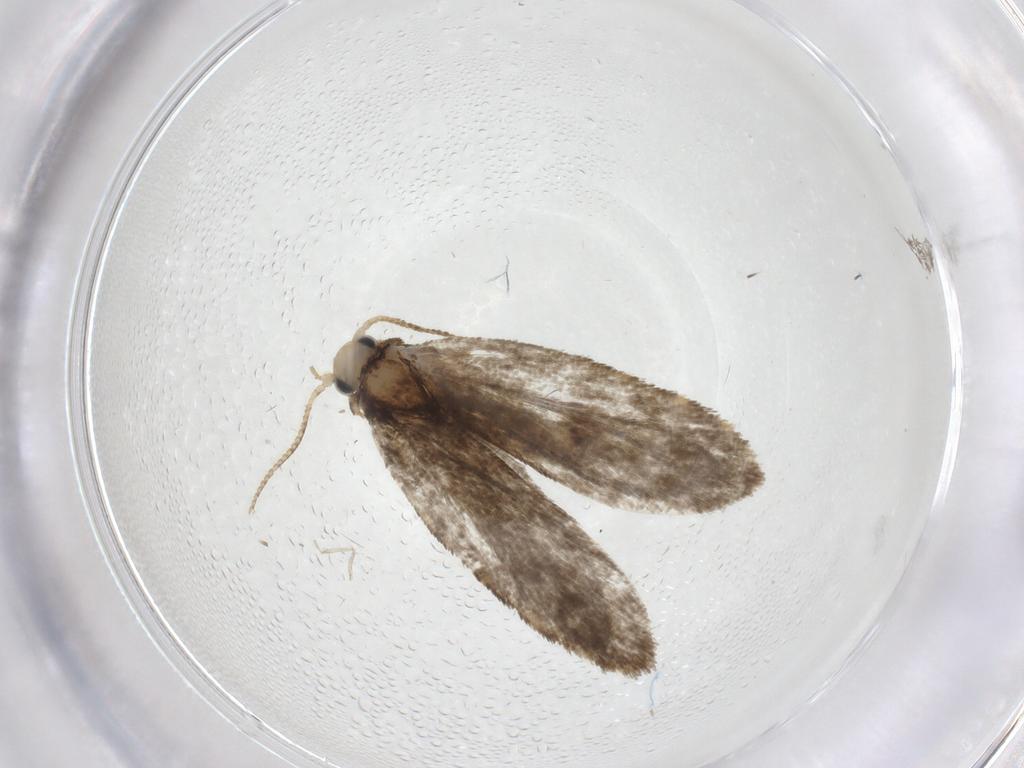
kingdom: Animalia
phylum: Arthropoda
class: Insecta
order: Lepidoptera
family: Psychidae
